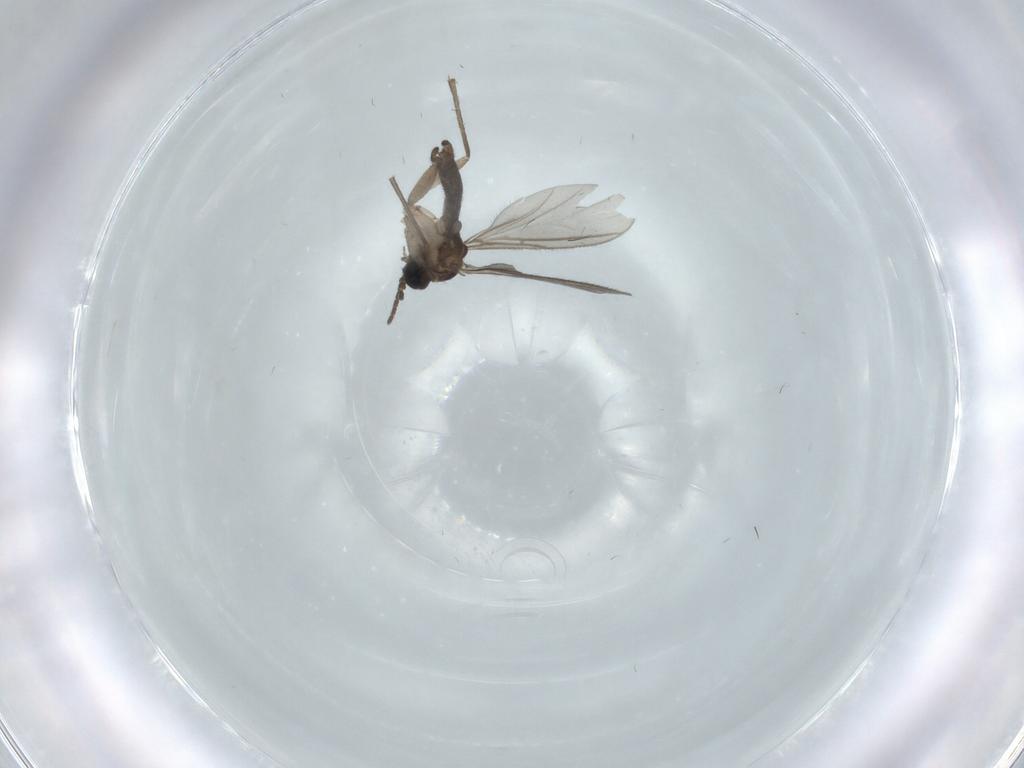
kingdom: Animalia
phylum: Arthropoda
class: Insecta
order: Diptera
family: Sciaridae
